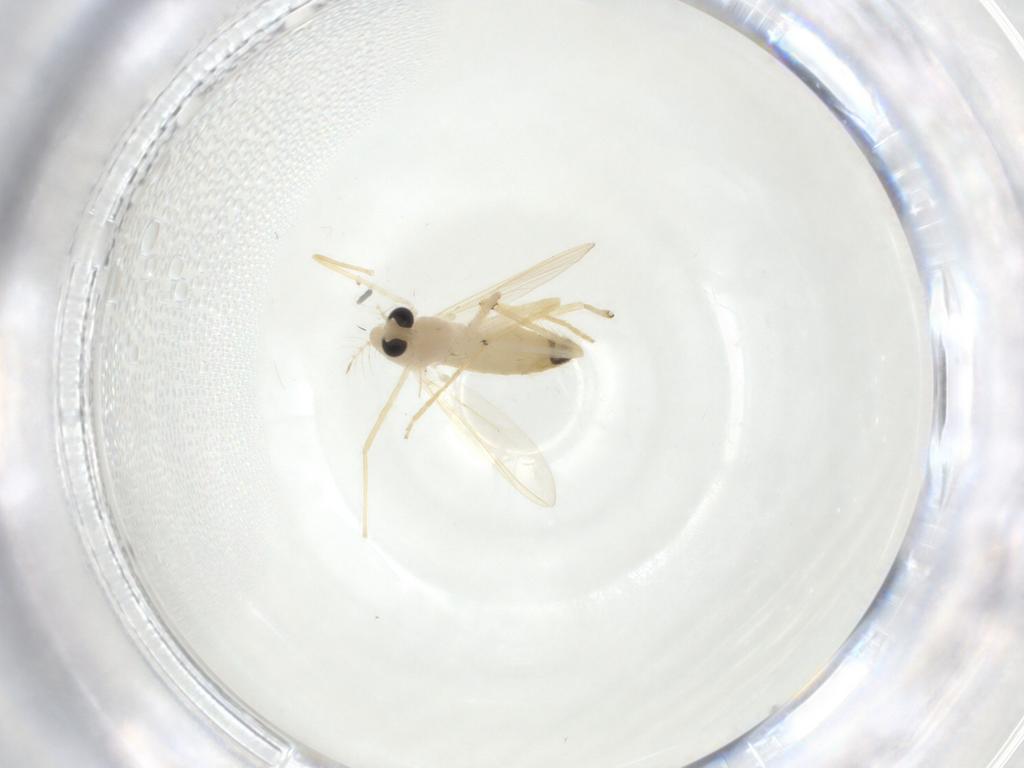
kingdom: Animalia
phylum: Arthropoda
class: Insecta
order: Diptera
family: Chironomidae
